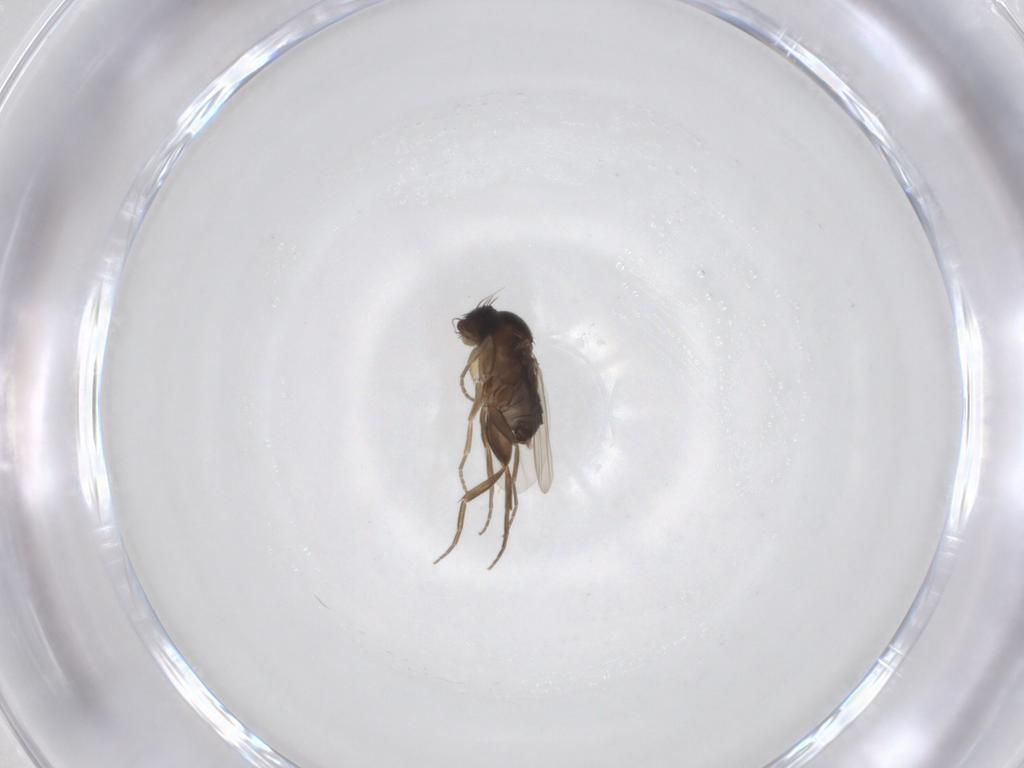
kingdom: Animalia
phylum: Arthropoda
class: Insecta
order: Diptera
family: Phoridae
